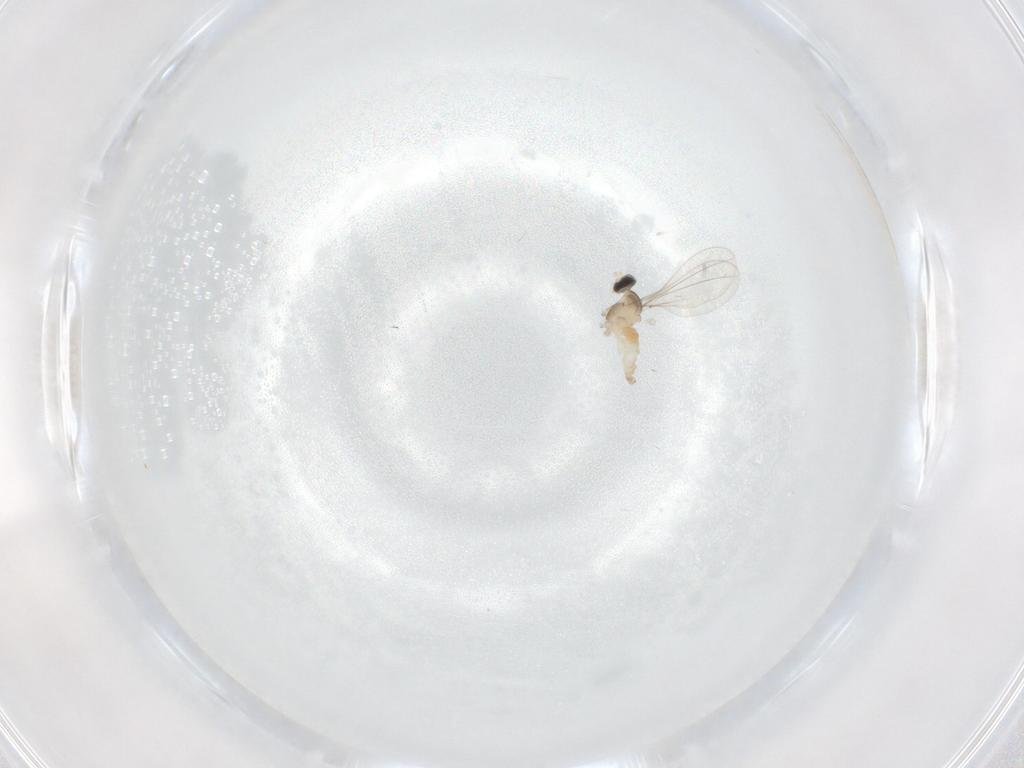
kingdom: Animalia
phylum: Arthropoda
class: Insecta
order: Diptera
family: Cecidomyiidae
